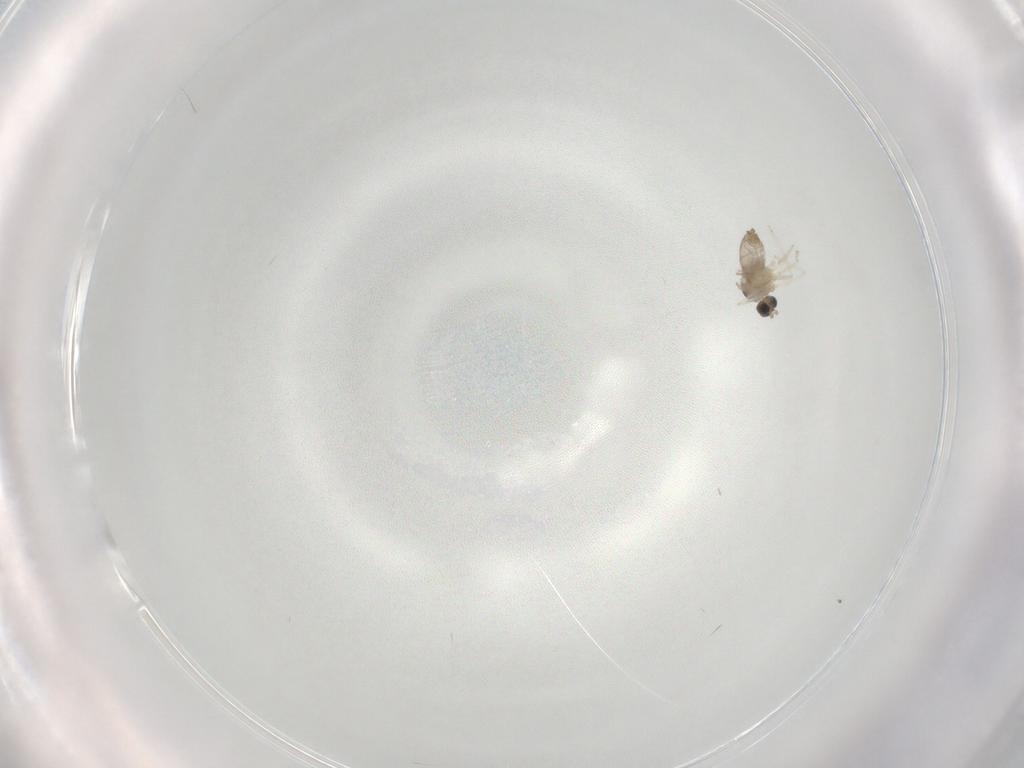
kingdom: Animalia
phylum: Arthropoda
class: Insecta
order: Diptera
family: Cecidomyiidae
